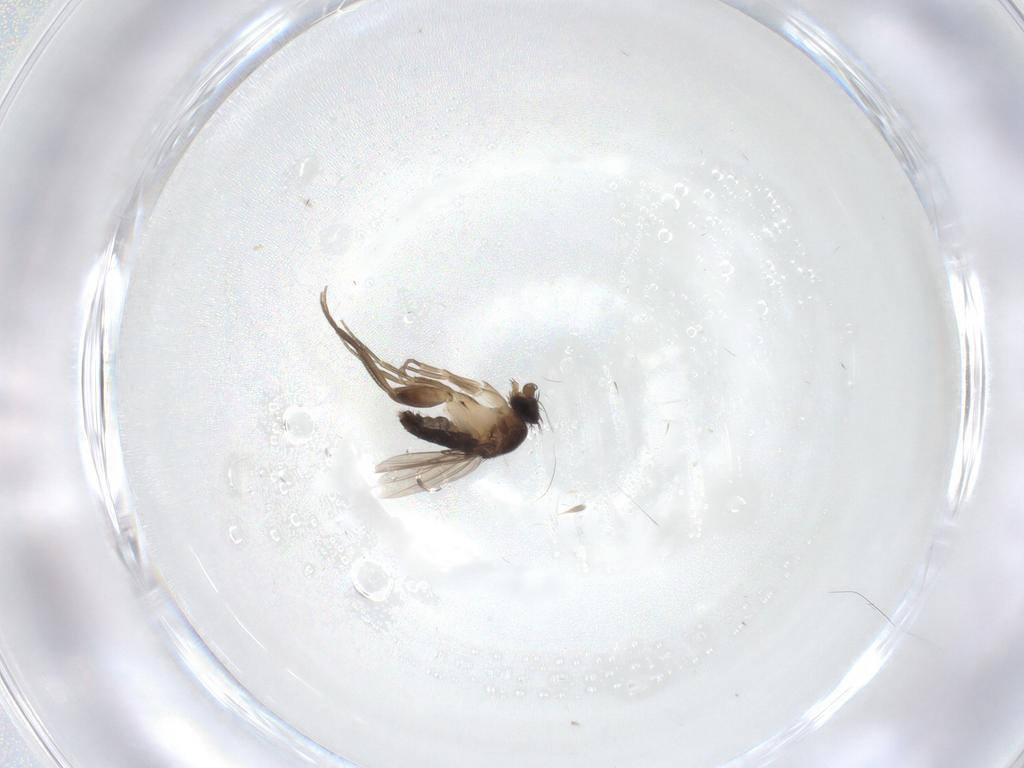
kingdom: Animalia
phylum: Arthropoda
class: Insecta
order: Diptera
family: Phoridae
